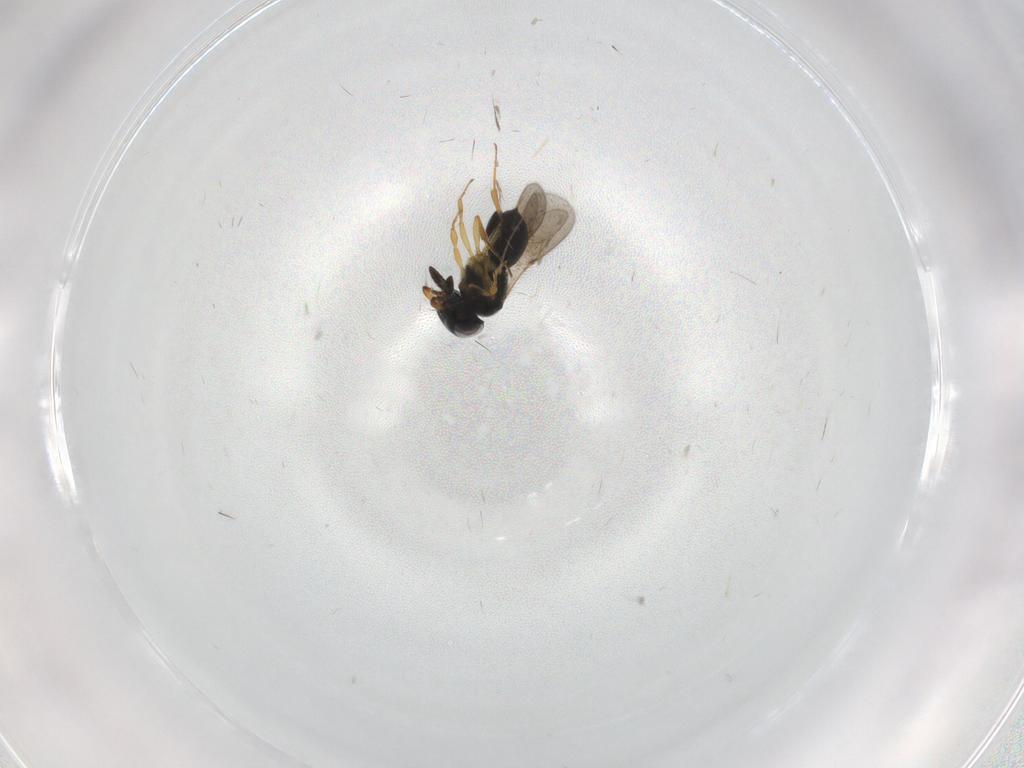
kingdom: Animalia
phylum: Arthropoda
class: Insecta
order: Hymenoptera
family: Scelionidae
